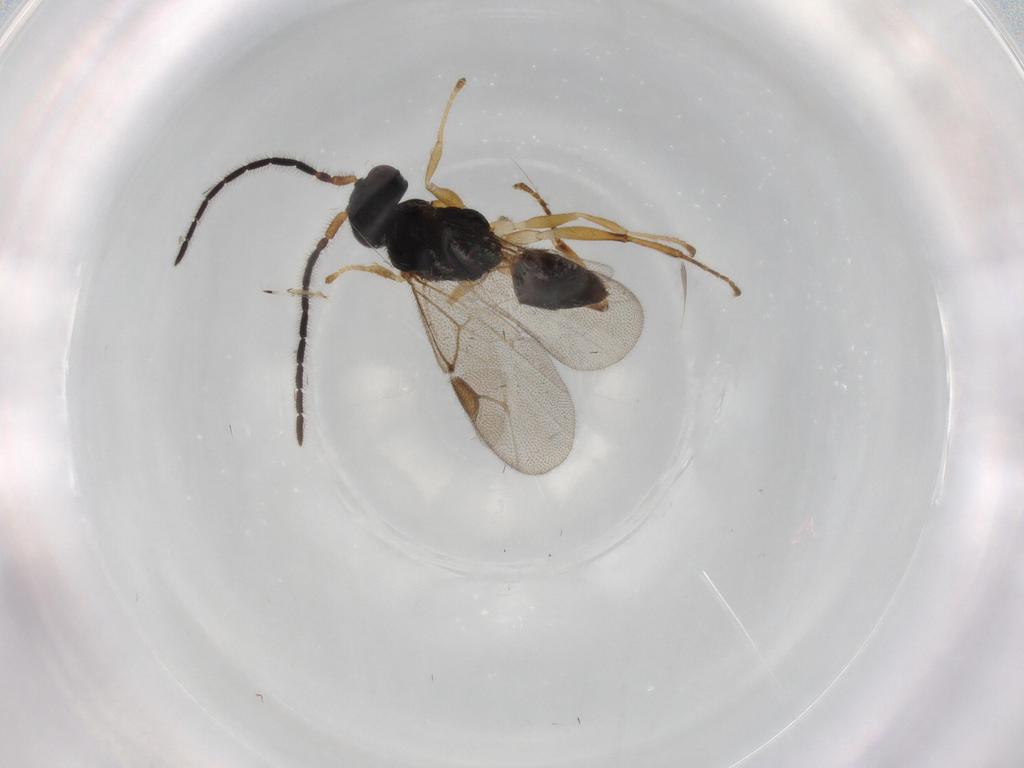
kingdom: Animalia
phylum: Arthropoda
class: Insecta
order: Hymenoptera
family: Dryinidae
